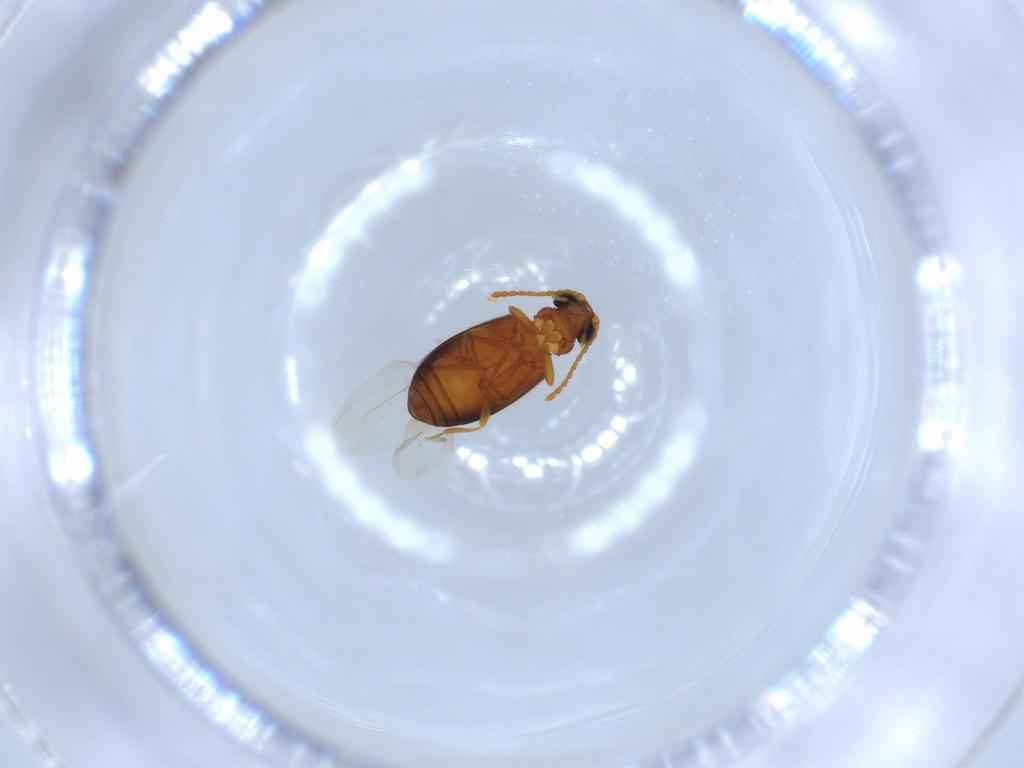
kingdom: Animalia
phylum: Arthropoda
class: Insecta
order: Coleoptera
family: Aderidae
